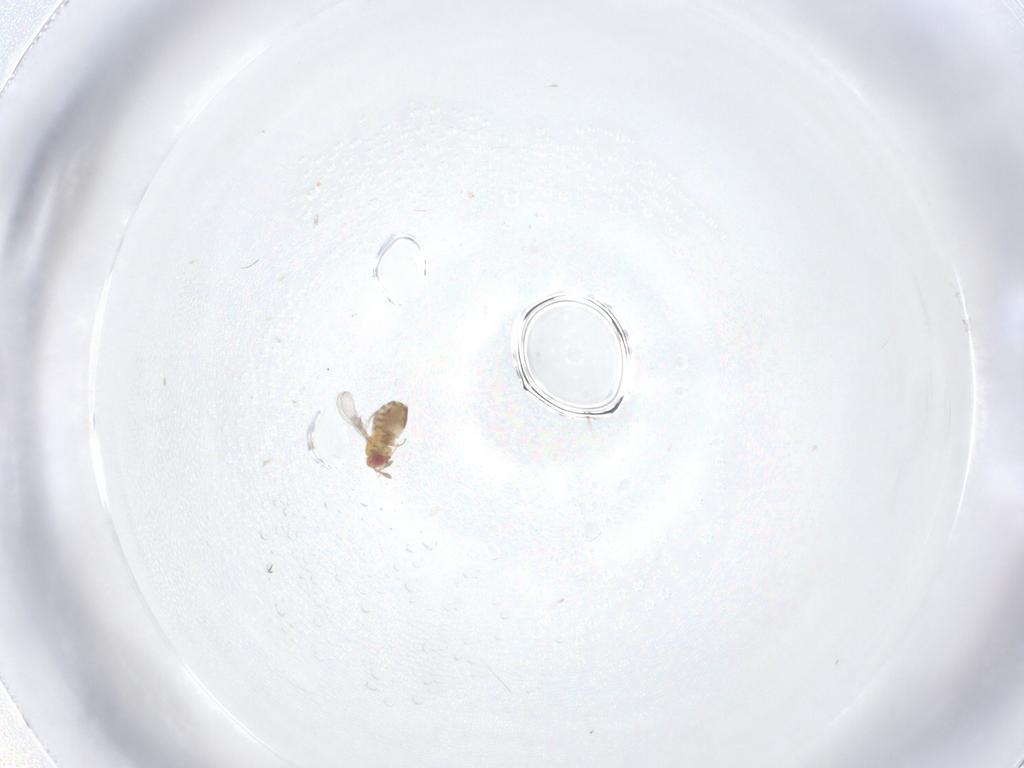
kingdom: Animalia
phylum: Arthropoda
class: Insecta
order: Hymenoptera
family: Trichogrammatidae
